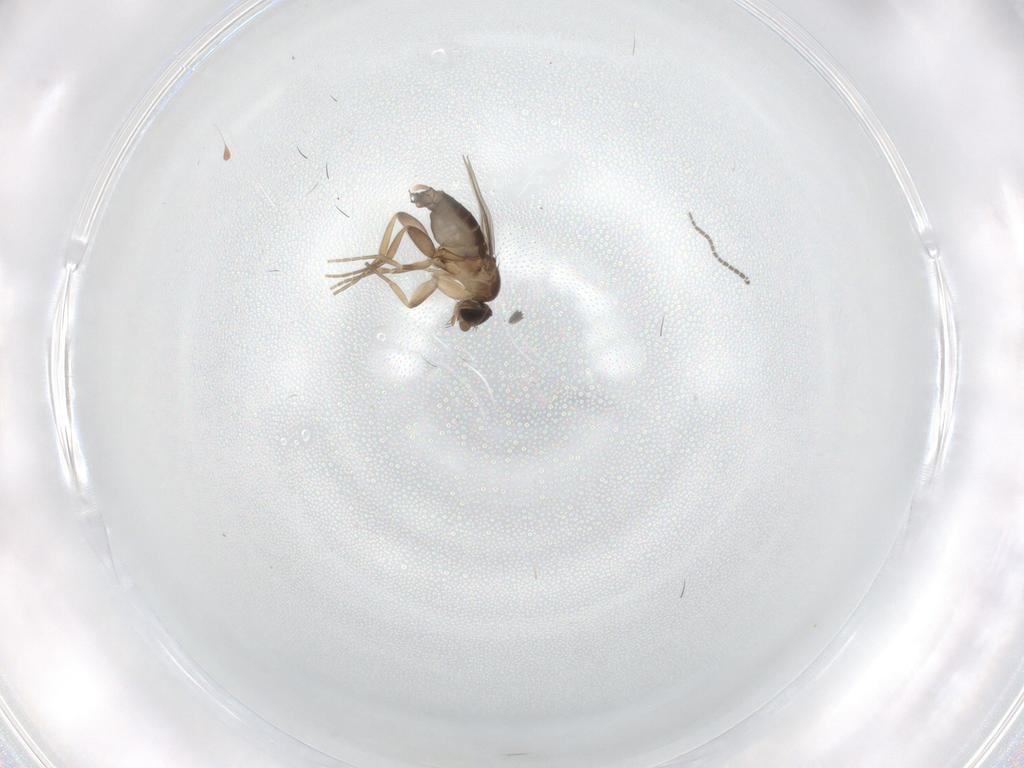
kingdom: Animalia
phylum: Arthropoda
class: Insecta
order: Diptera
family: Phoridae
